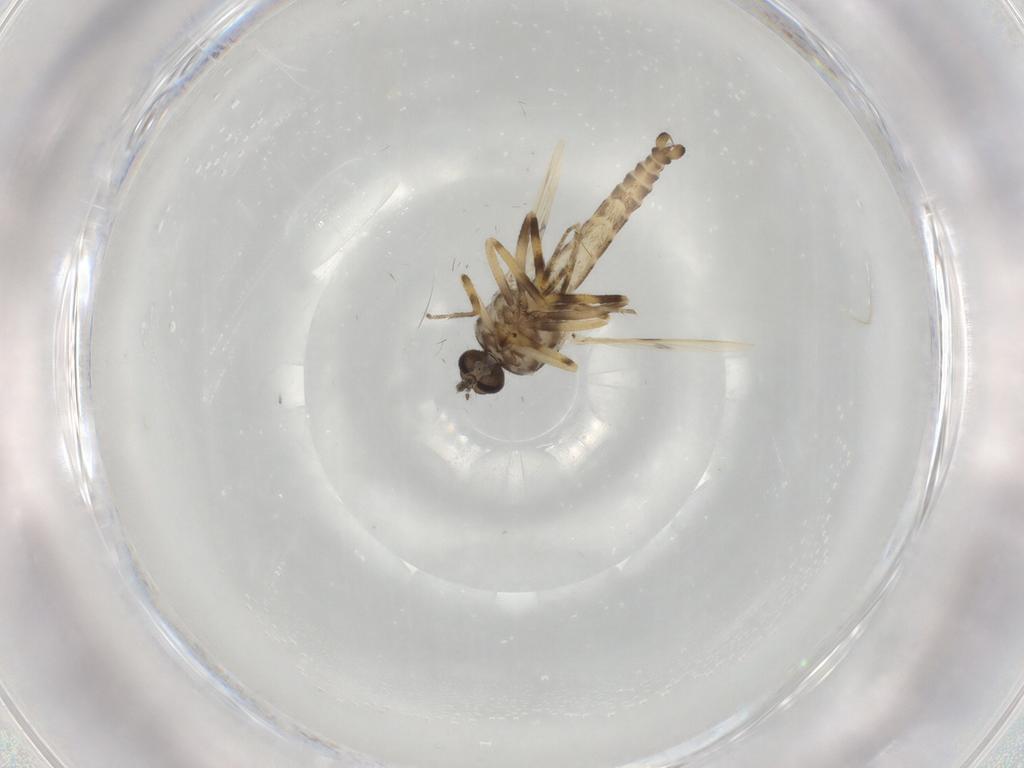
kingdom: Animalia
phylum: Arthropoda
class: Insecta
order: Diptera
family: Ceratopogonidae
